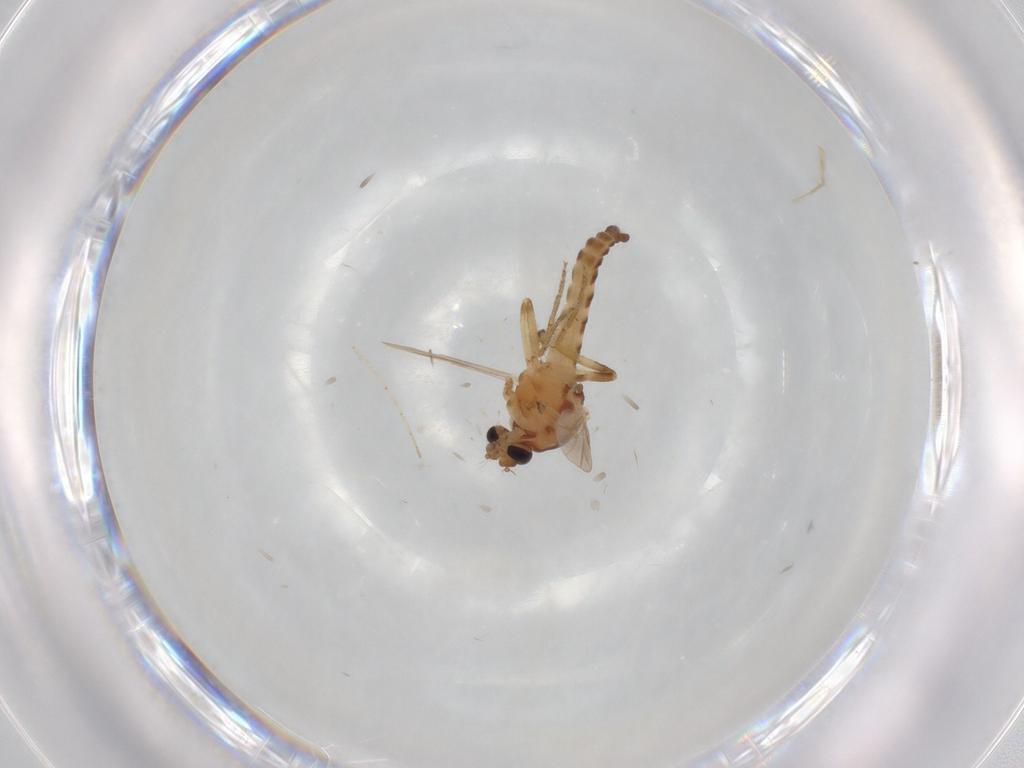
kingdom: Animalia
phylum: Arthropoda
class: Insecta
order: Diptera
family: Ceratopogonidae
